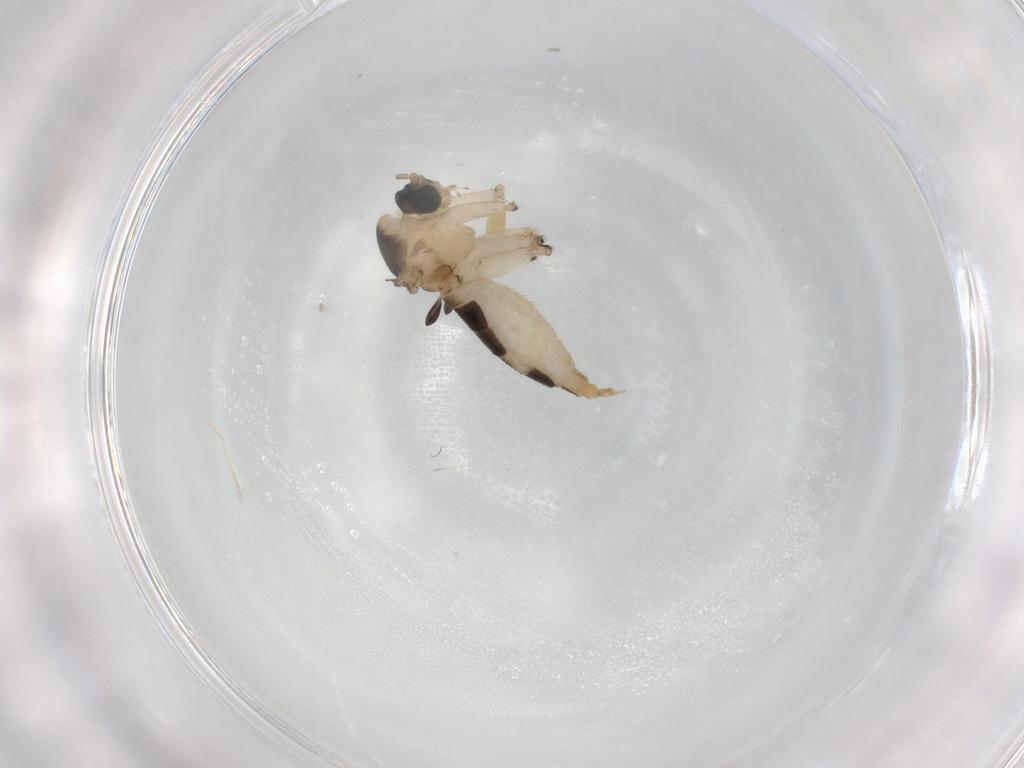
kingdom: Animalia
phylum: Arthropoda
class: Insecta
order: Diptera
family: Sciaridae
